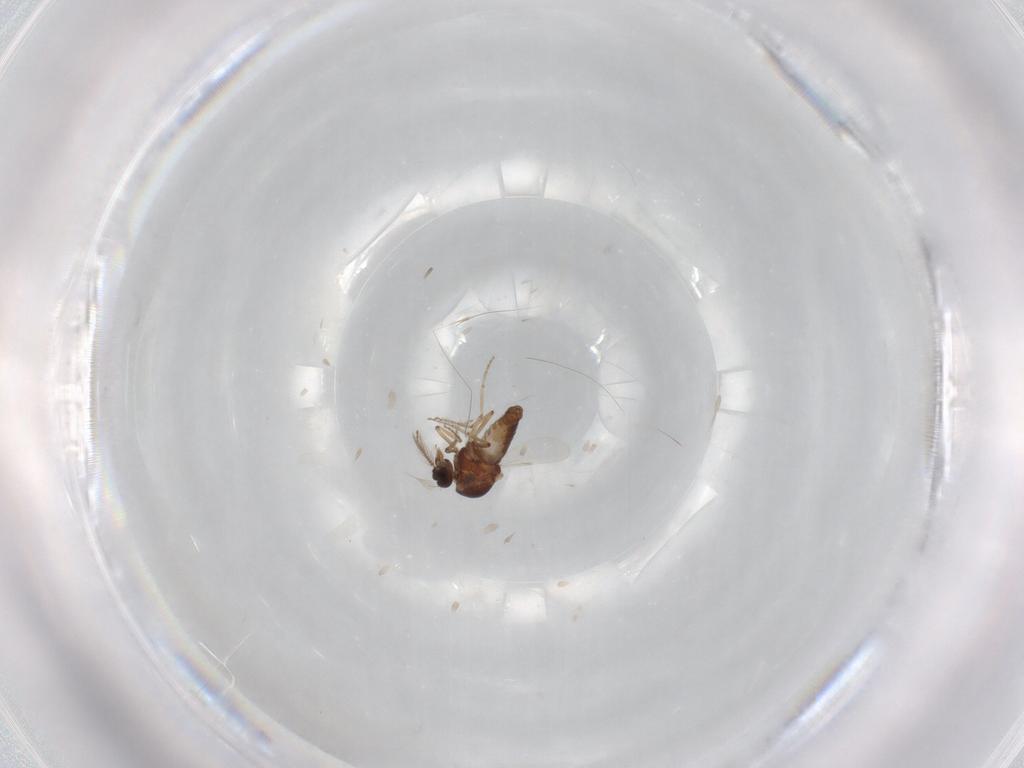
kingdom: Animalia
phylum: Arthropoda
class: Insecta
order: Diptera
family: Ceratopogonidae
